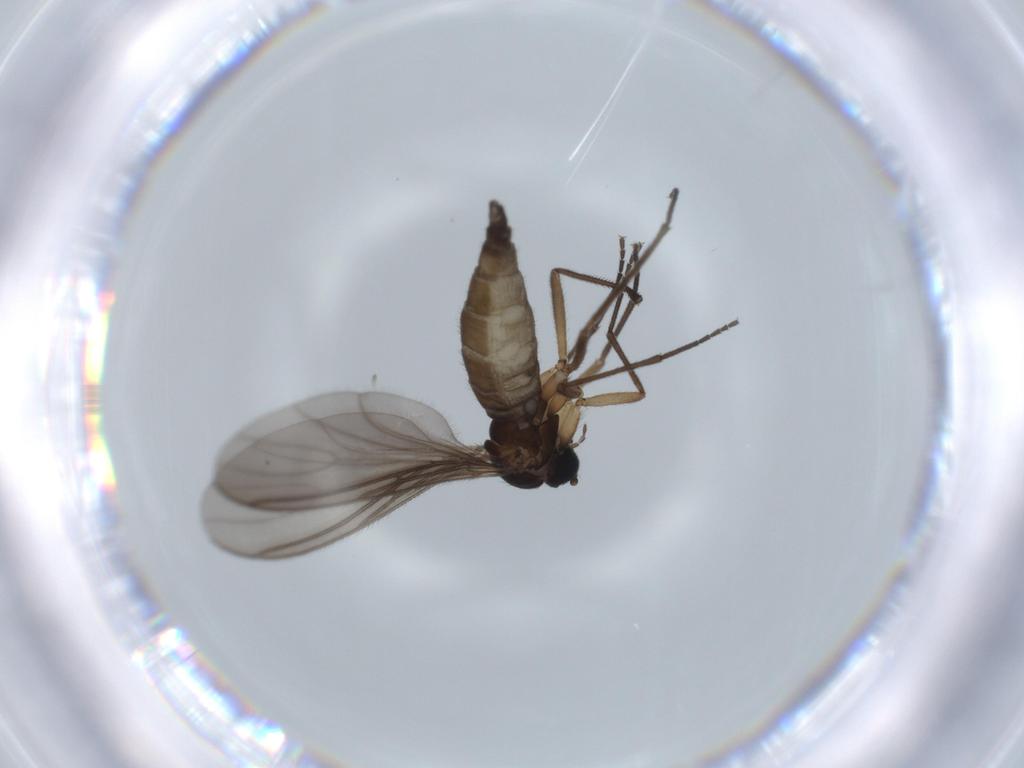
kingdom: Animalia
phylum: Arthropoda
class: Insecta
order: Diptera
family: Sciaridae
